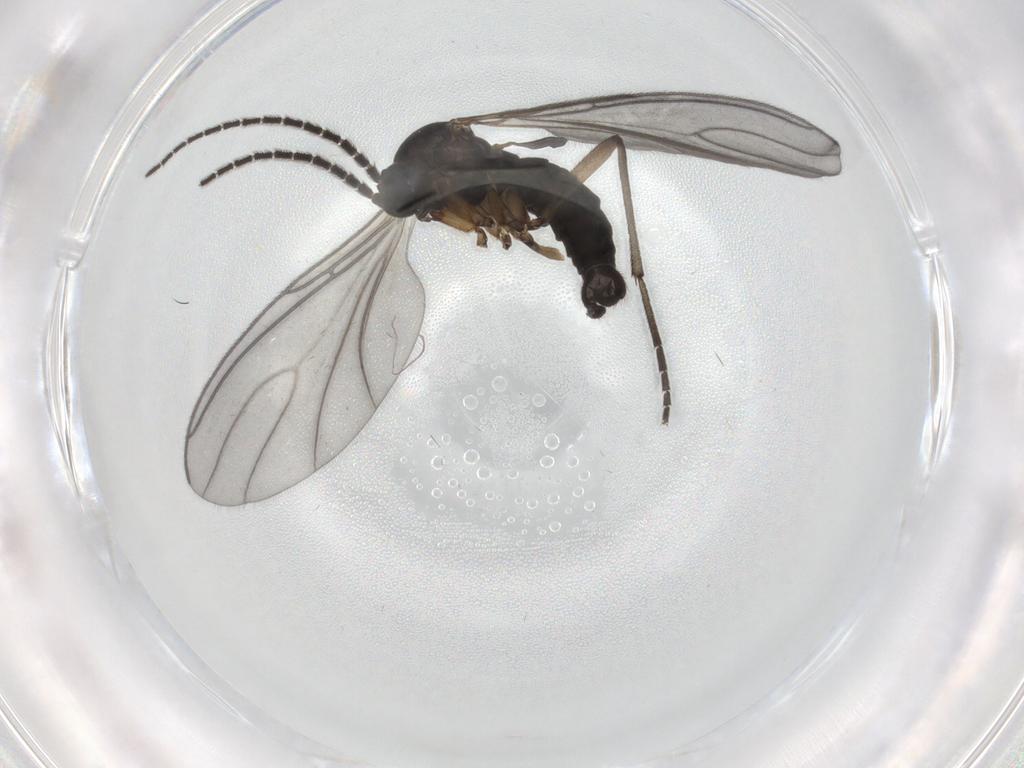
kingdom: Animalia
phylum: Arthropoda
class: Insecta
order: Diptera
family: Sciaridae
